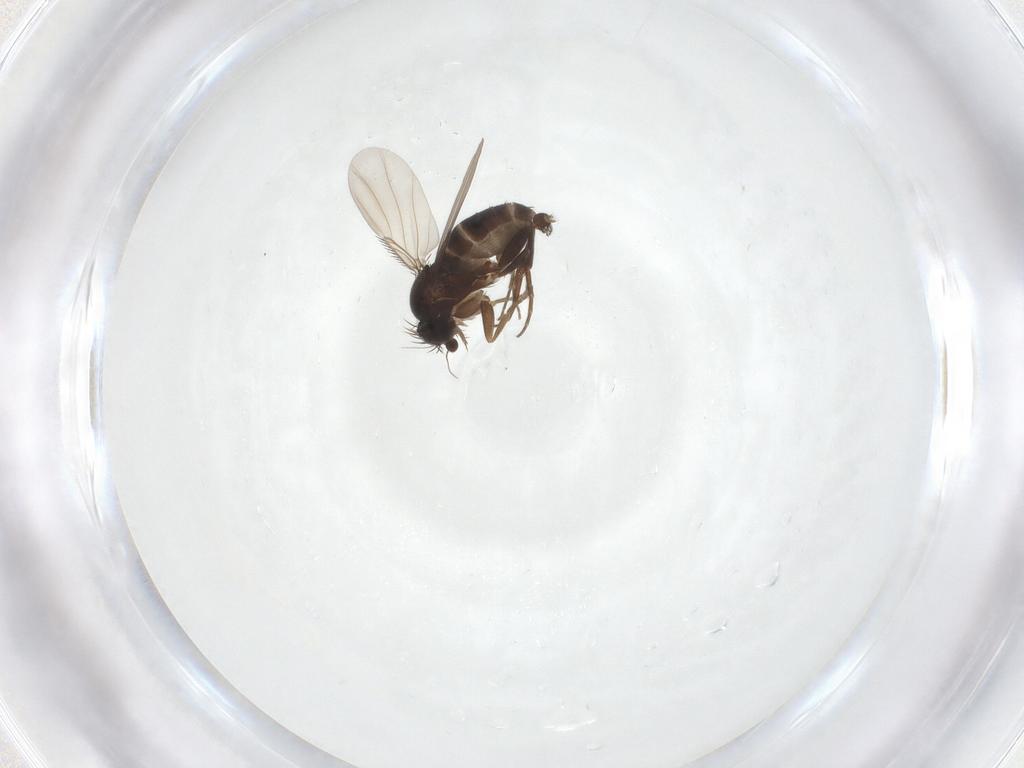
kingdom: Animalia
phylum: Arthropoda
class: Insecta
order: Diptera
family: Phoridae
